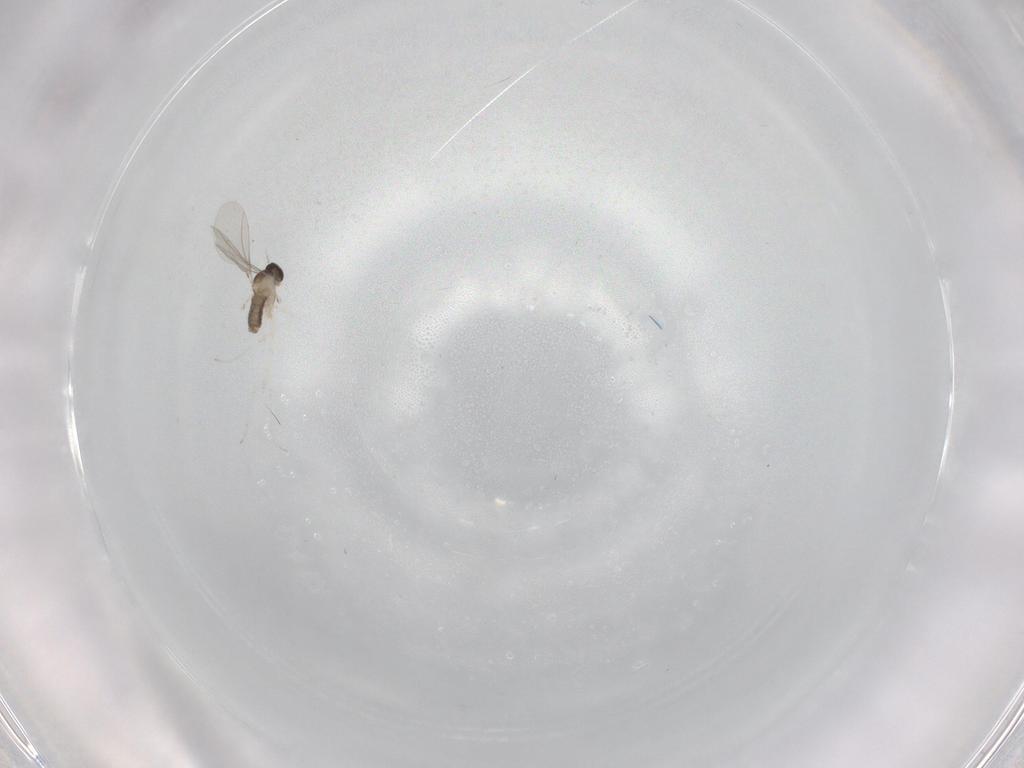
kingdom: Animalia
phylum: Arthropoda
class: Insecta
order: Diptera
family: Cecidomyiidae
